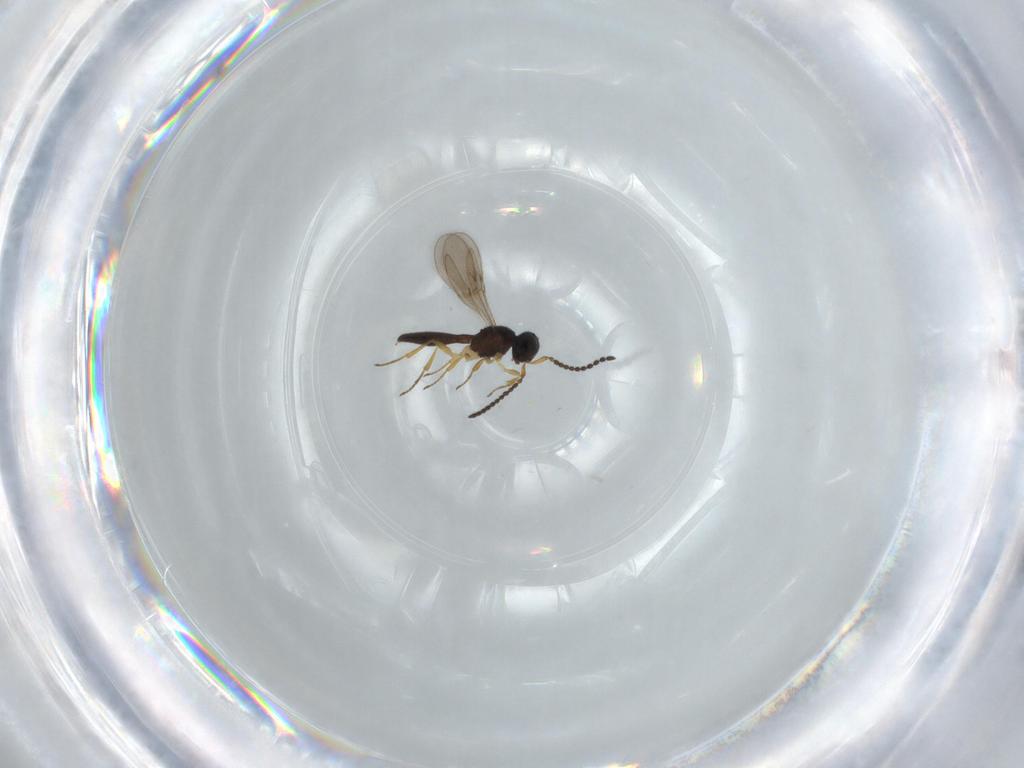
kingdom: Animalia
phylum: Arthropoda
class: Insecta
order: Hymenoptera
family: Scelionidae
